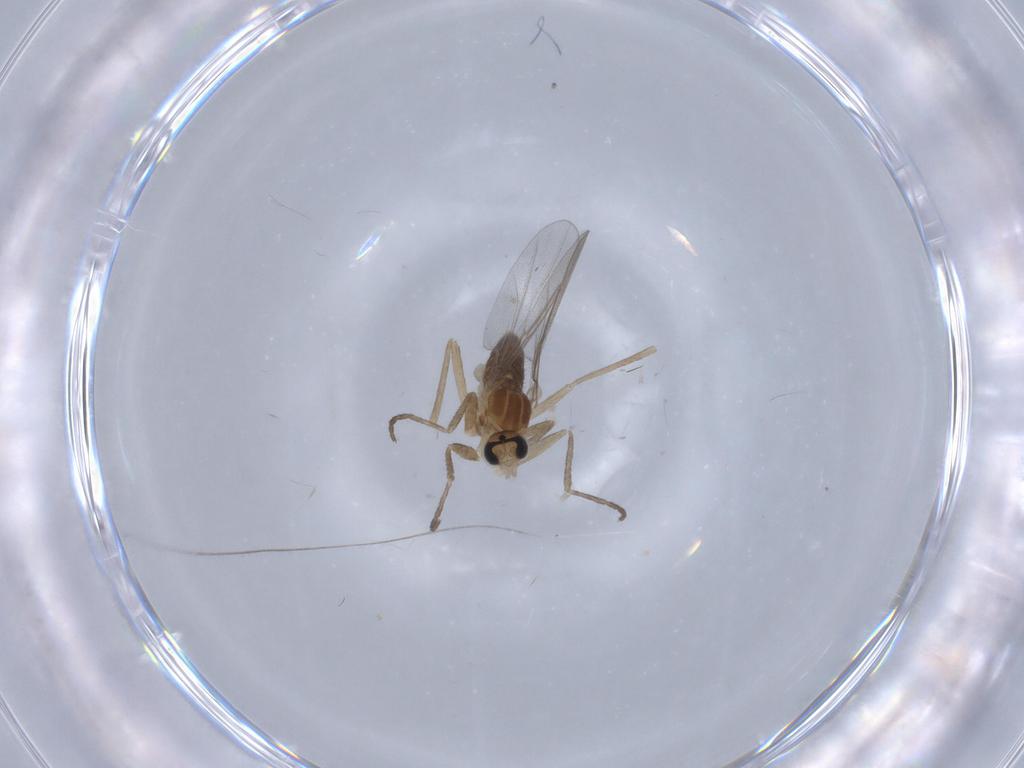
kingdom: Animalia
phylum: Arthropoda
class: Insecta
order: Diptera
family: Cecidomyiidae
